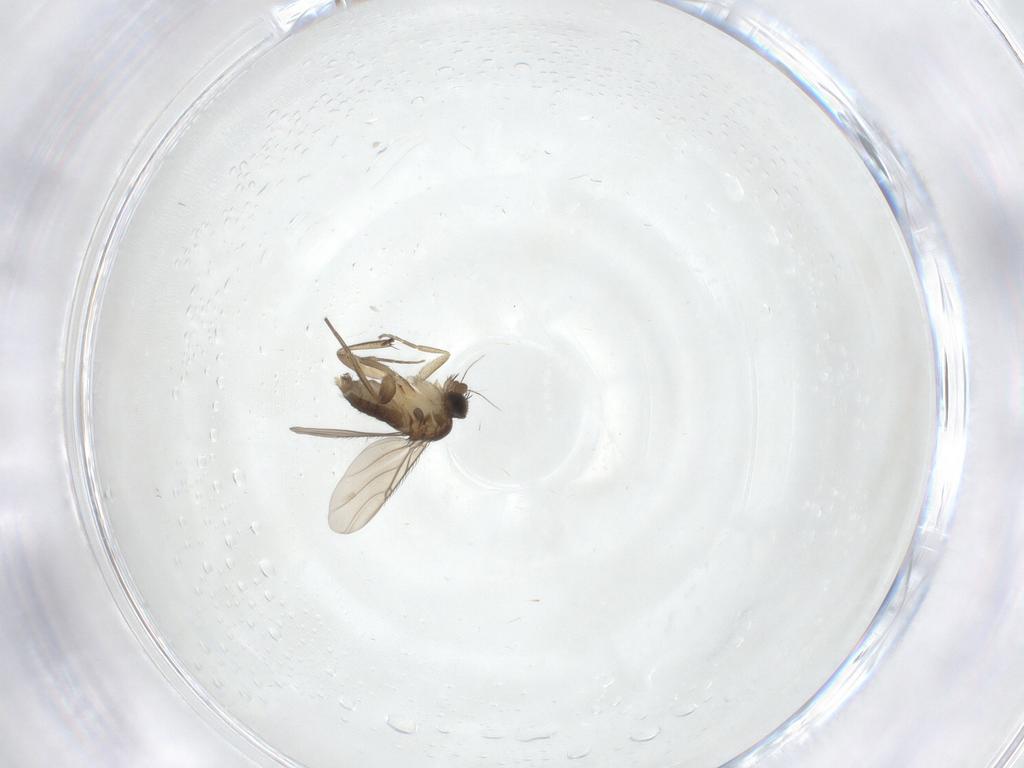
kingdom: Animalia
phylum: Arthropoda
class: Insecta
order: Diptera
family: Phoridae
